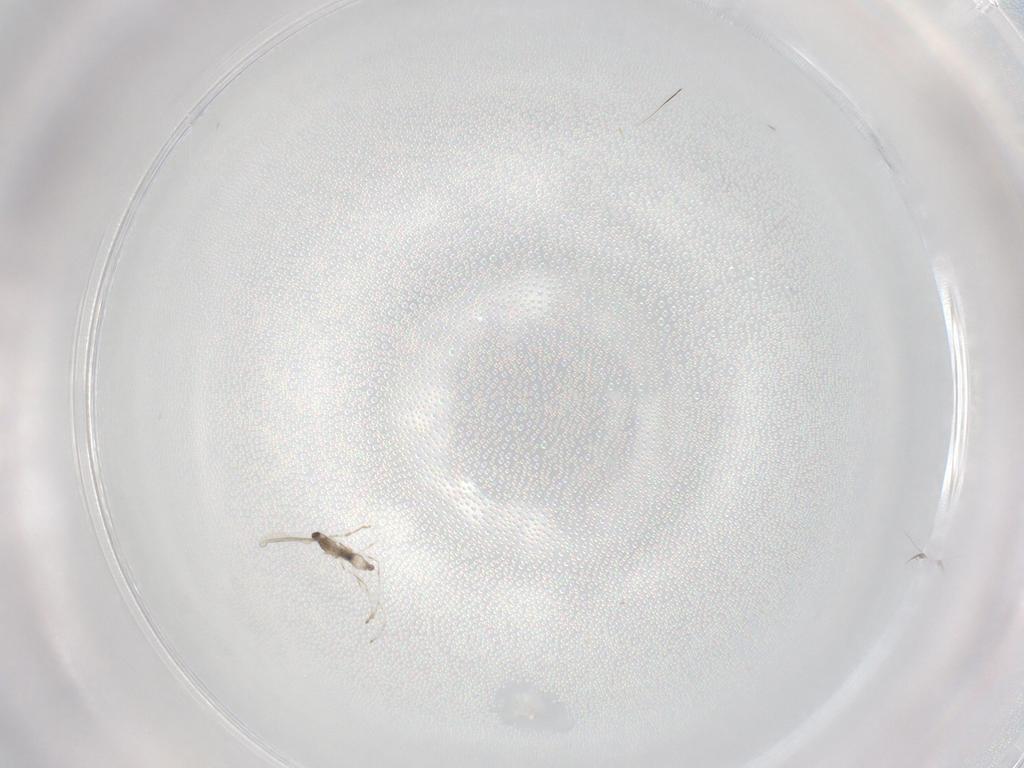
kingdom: Animalia
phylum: Arthropoda
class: Insecta
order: Diptera
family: Cecidomyiidae
